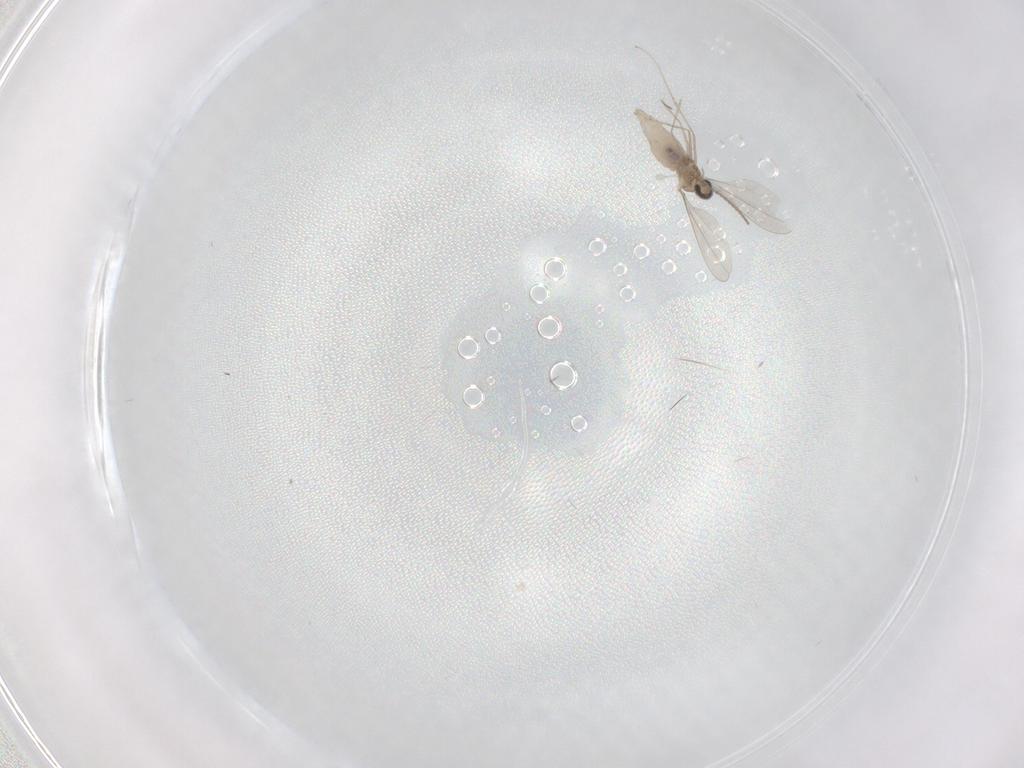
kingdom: Animalia
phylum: Arthropoda
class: Insecta
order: Diptera
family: Cecidomyiidae
